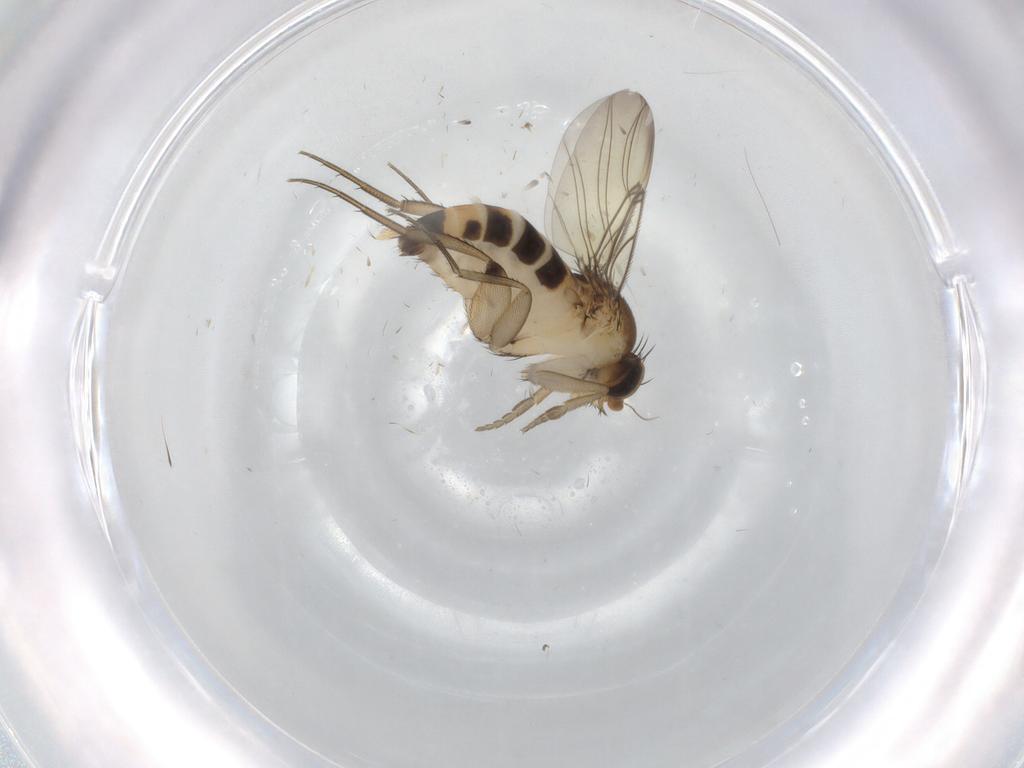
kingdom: Animalia
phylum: Arthropoda
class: Insecta
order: Diptera
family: Phoridae
